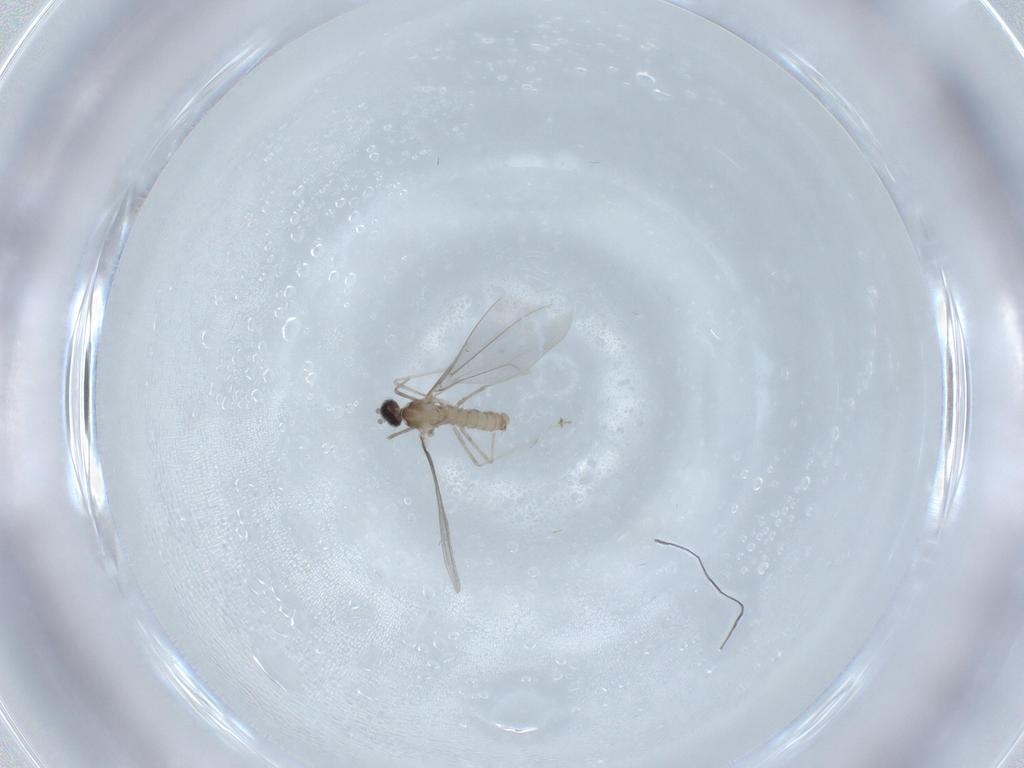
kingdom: Animalia
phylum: Arthropoda
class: Insecta
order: Diptera
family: Cecidomyiidae
